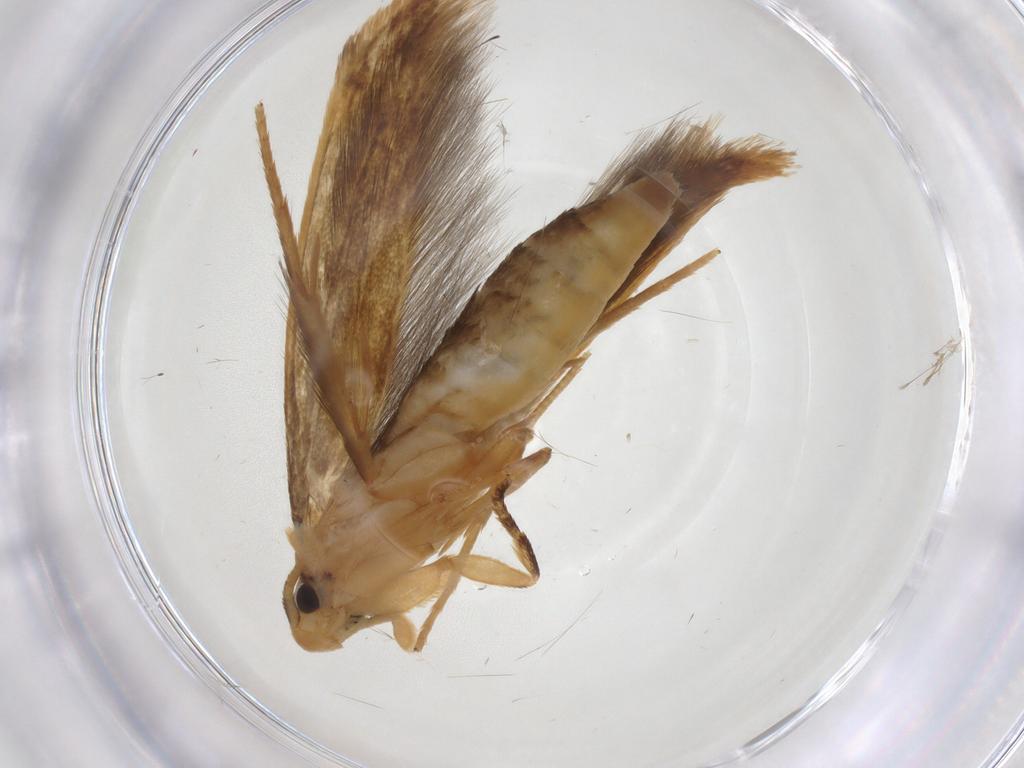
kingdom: Animalia
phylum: Arthropoda
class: Insecta
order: Lepidoptera
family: Tineidae
